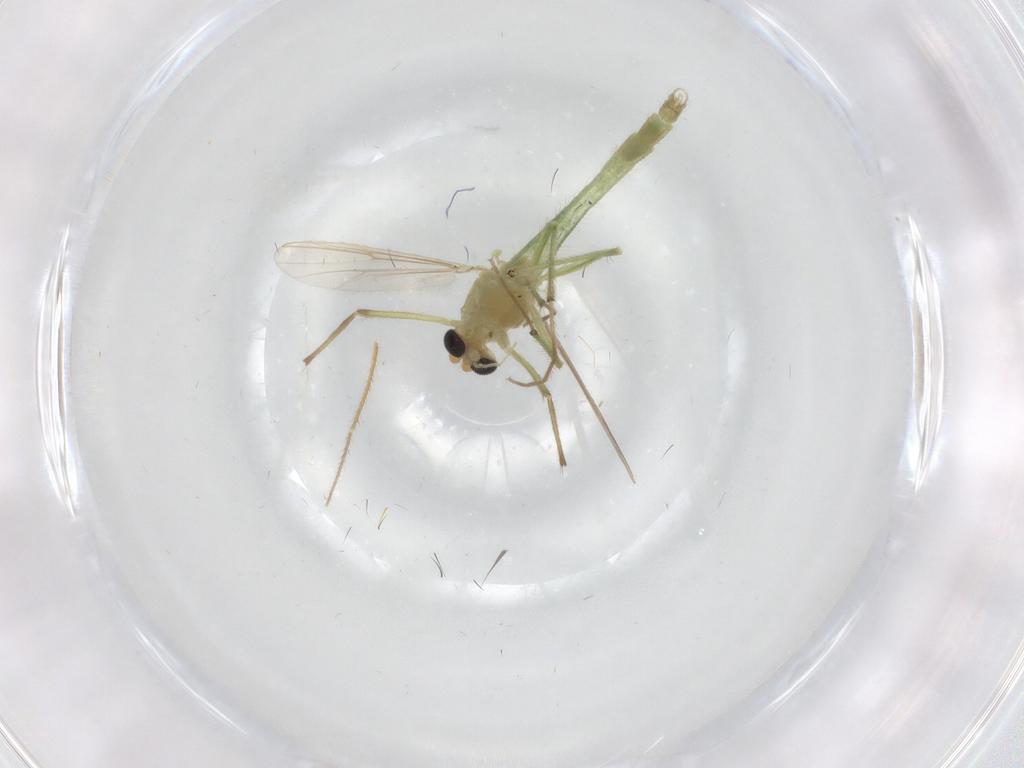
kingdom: Animalia
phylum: Arthropoda
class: Insecta
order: Diptera
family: Chironomidae
